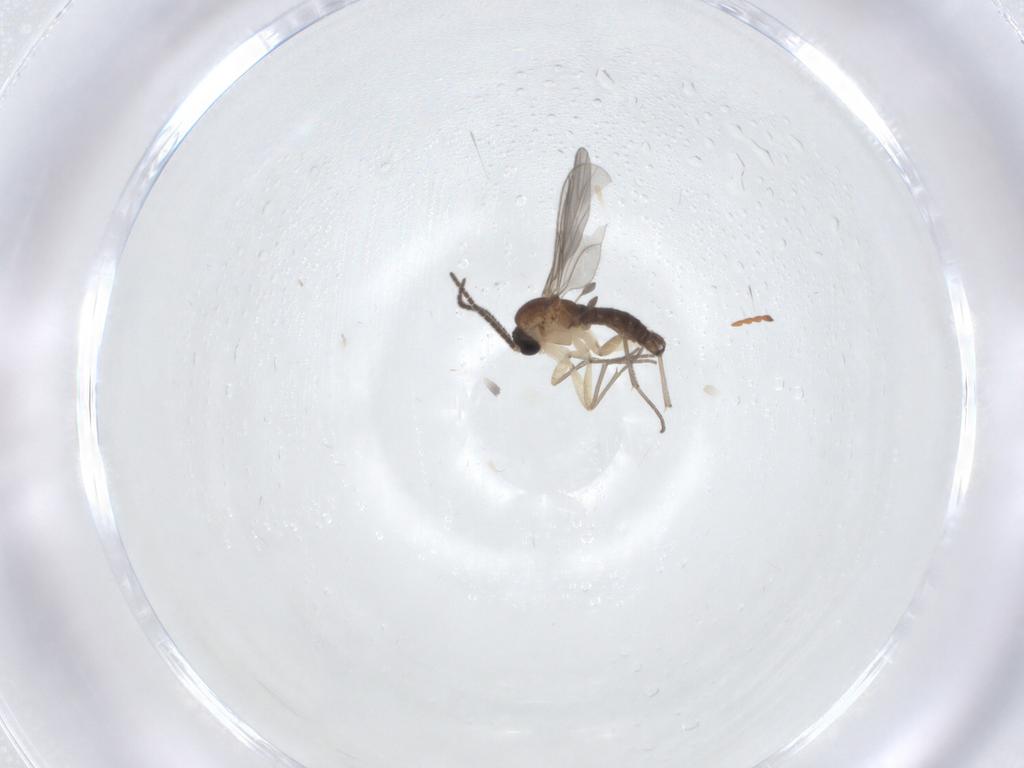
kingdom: Animalia
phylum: Arthropoda
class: Insecta
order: Diptera
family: Sciaridae
